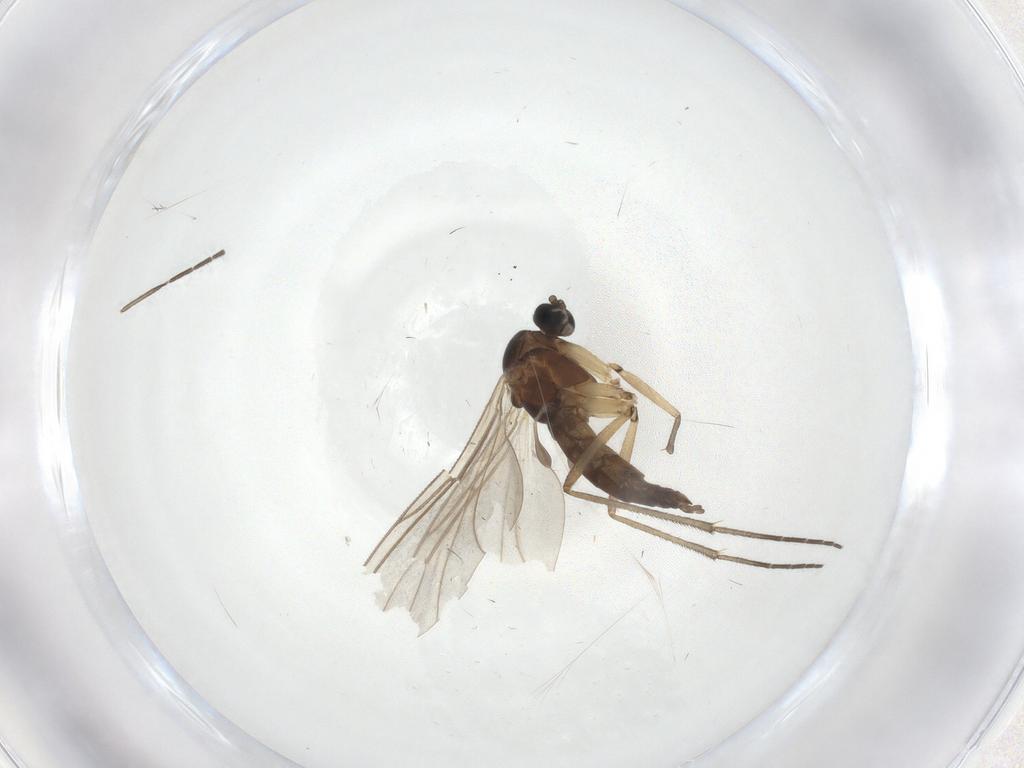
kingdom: Animalia
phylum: Arthropoda
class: Insecta
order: Diptera
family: Sciaridae
